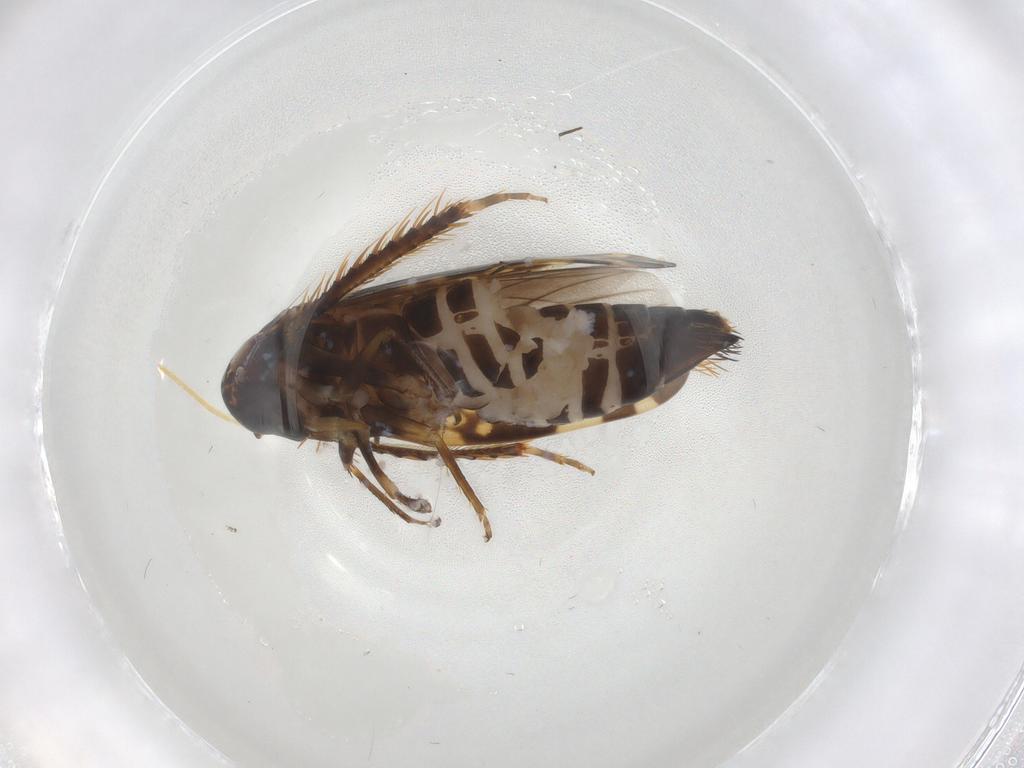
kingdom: Animalia
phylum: Arthropoda
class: Insecta
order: Hemiptera
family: Cicadellidae
